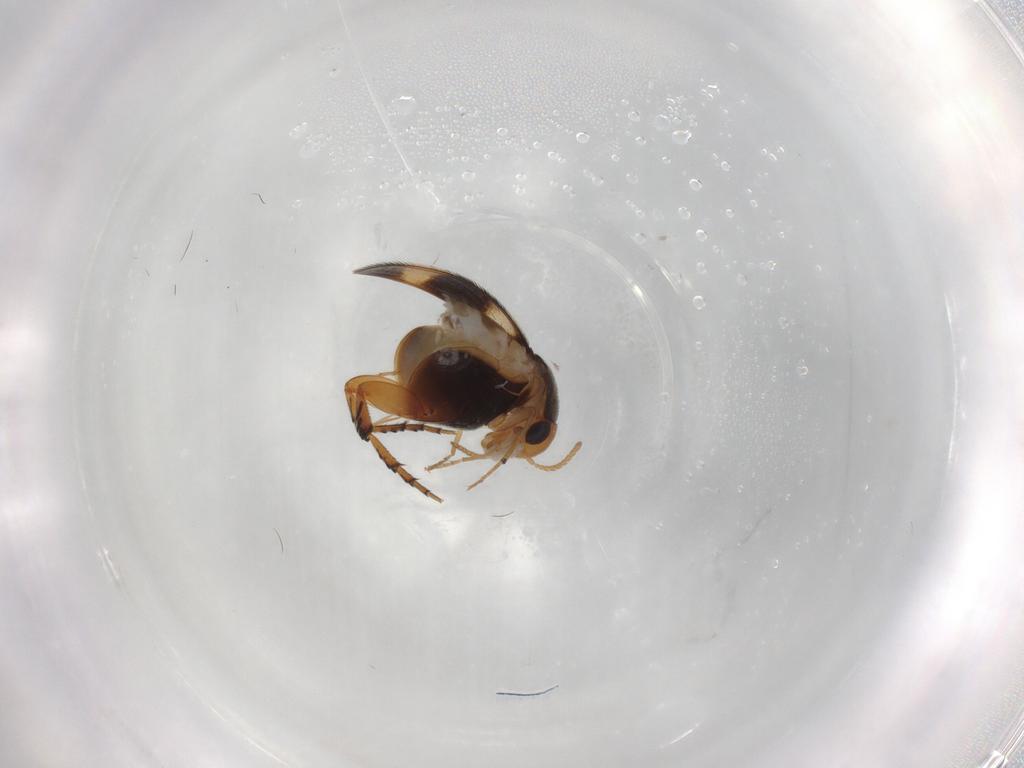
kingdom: Animalia
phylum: Arthropoda
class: Insecta
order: Coleoptera
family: Mordellidae
